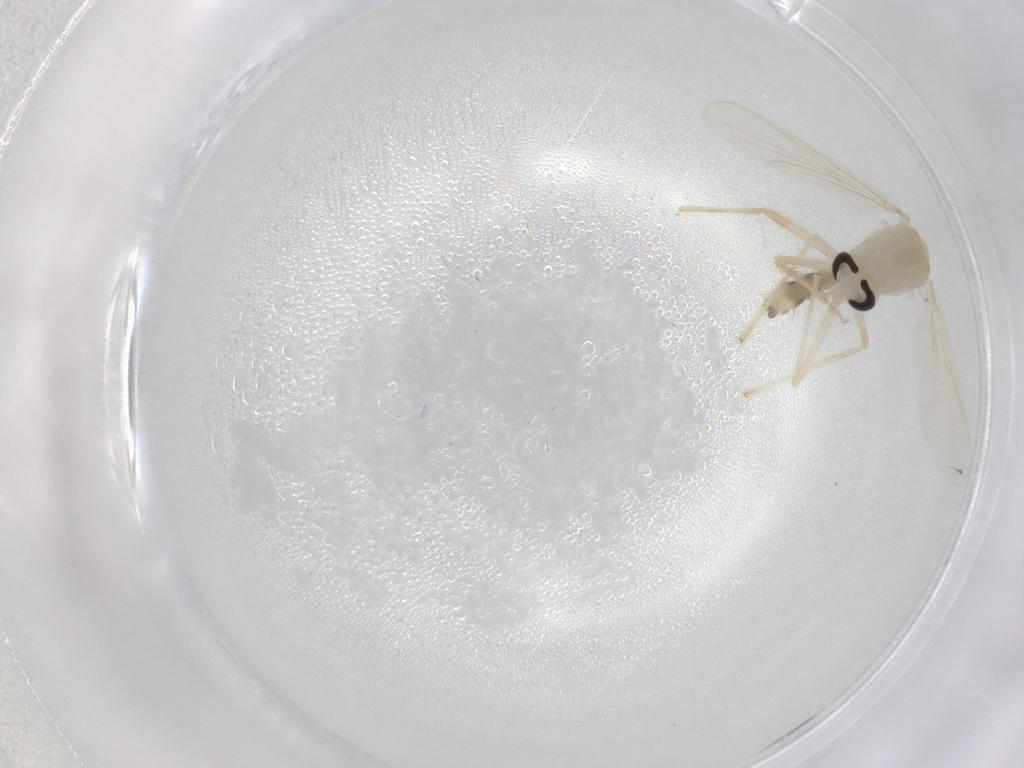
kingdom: Animalia
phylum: Arthropoda
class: Insecta
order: Diptera
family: Chironomidae
